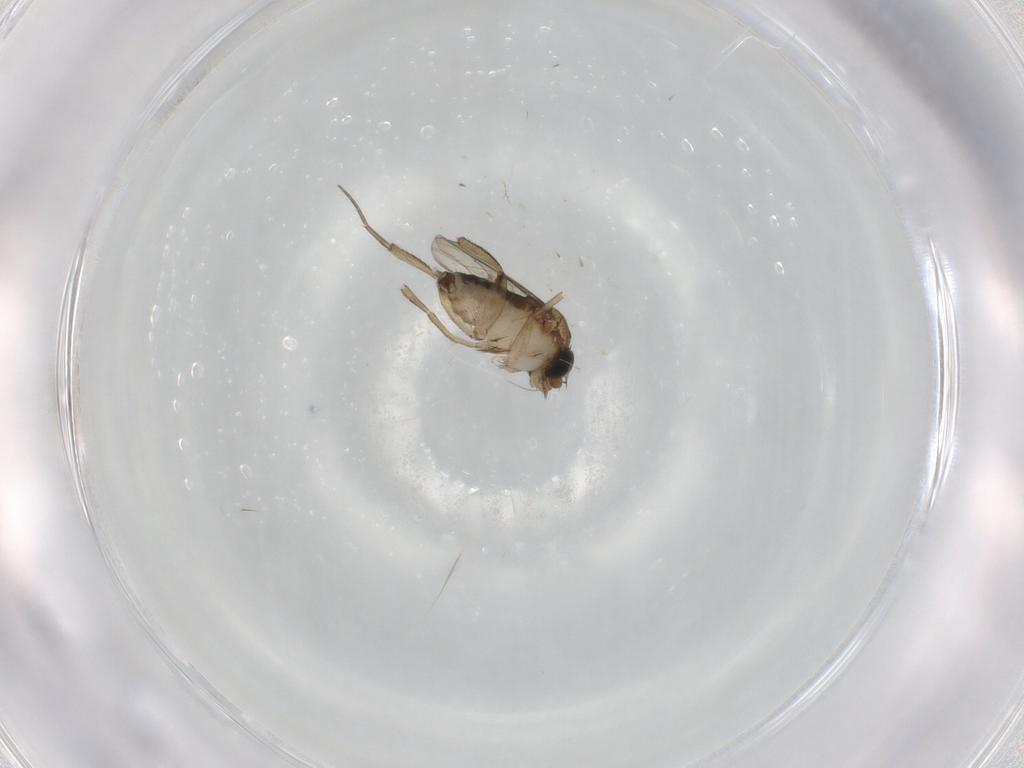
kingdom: Animalia
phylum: Arthropoda
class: Insecta
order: Diptera
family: Phoridae
